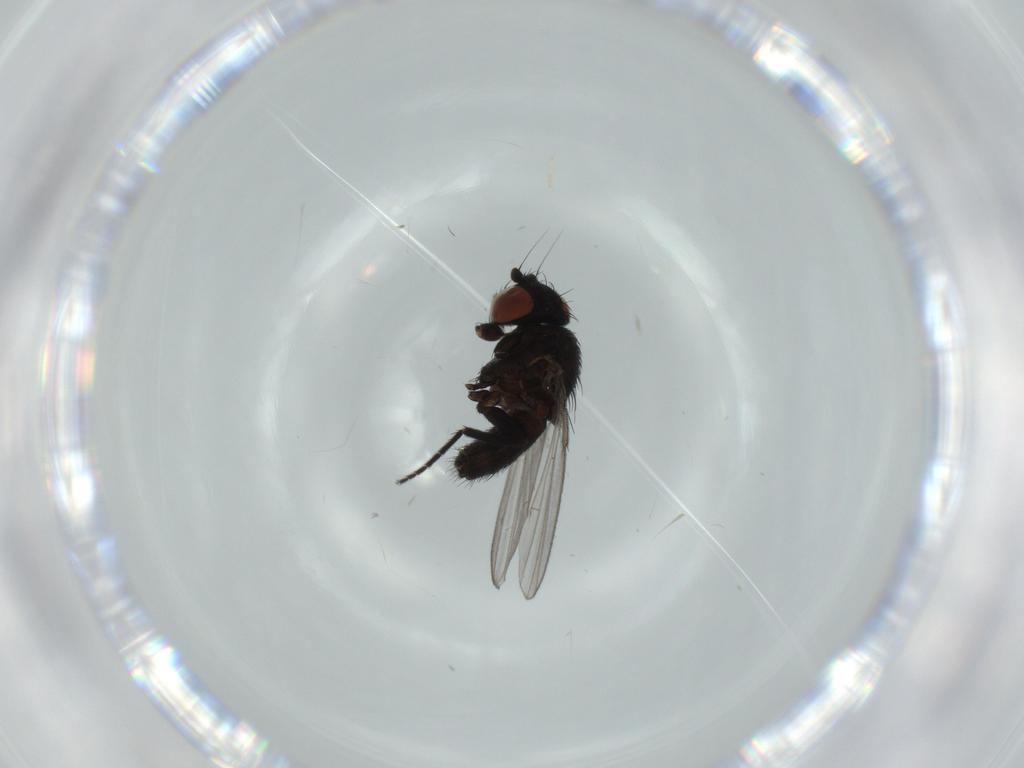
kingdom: Animalia
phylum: Arthropoda
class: Insecta
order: Diptera
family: Milichiidae
